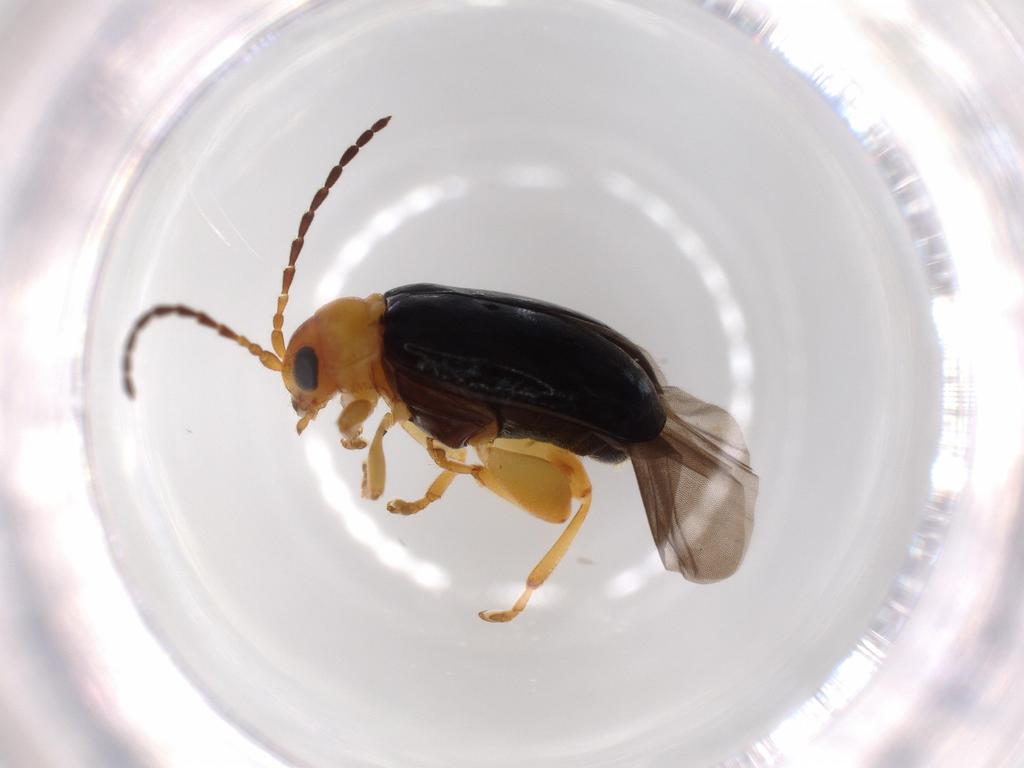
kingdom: Animalia
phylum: Arthropoda
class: Insecta
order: Coleoptera
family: Chrysomelidae
